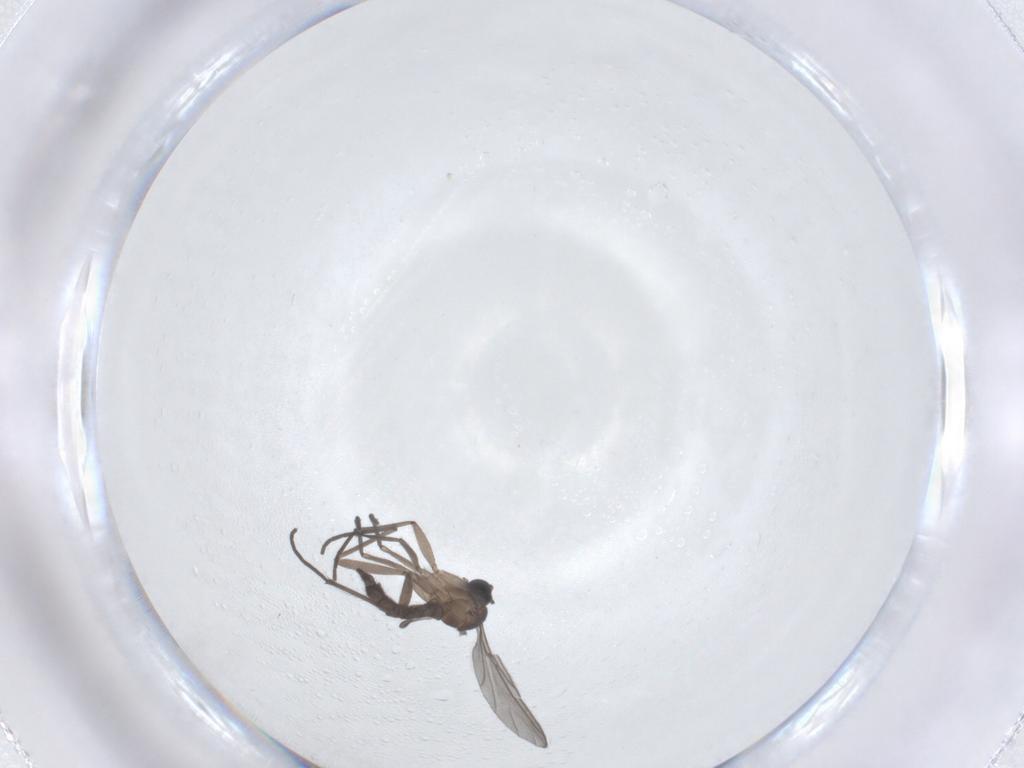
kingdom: Animalia
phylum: Arthropoda
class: Insecta
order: Diptera
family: Sciaridae
